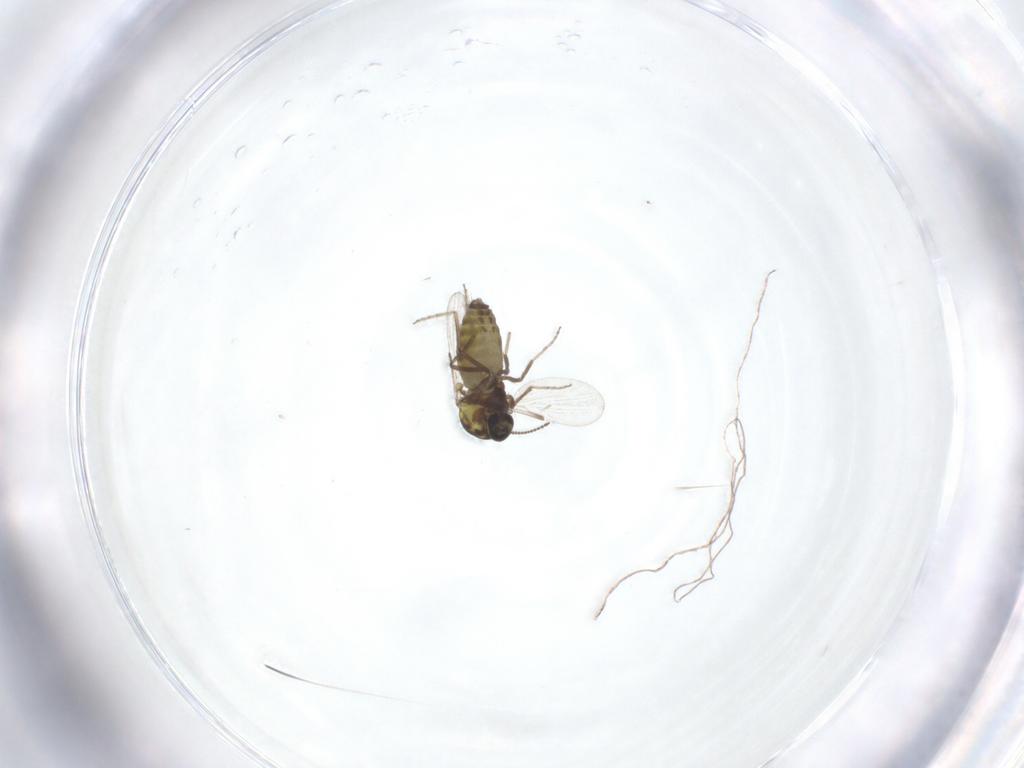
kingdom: Animalia
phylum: Arthropoda
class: Insecta
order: Diptera
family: Ceratopogonidae
